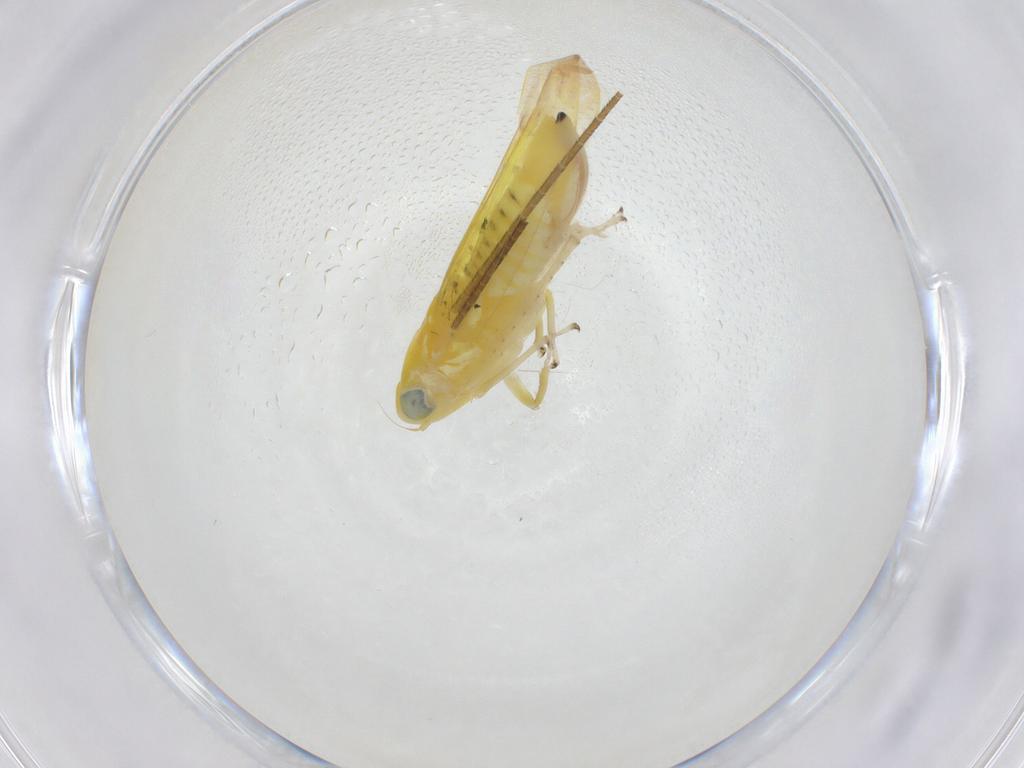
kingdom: Animalia
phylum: Arthropoda
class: Insecta
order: Hemiptera
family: Cicadellidae
